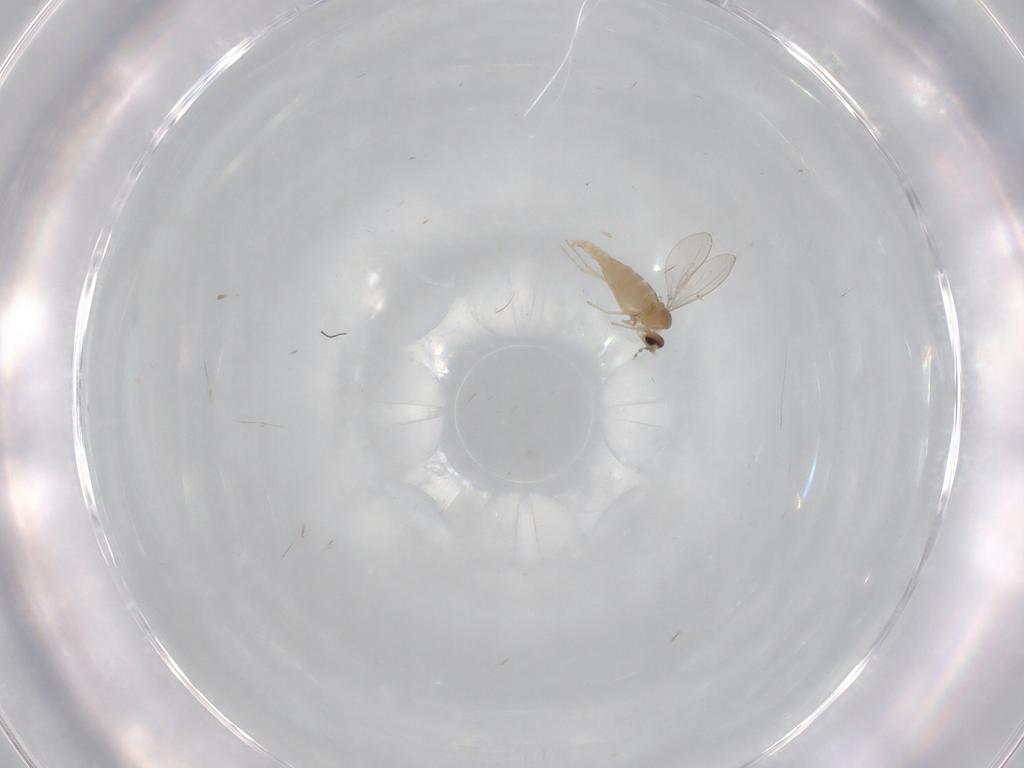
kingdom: Animalia
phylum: Arthropoda
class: Insecta
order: Diptera
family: Cecidomyiidae
